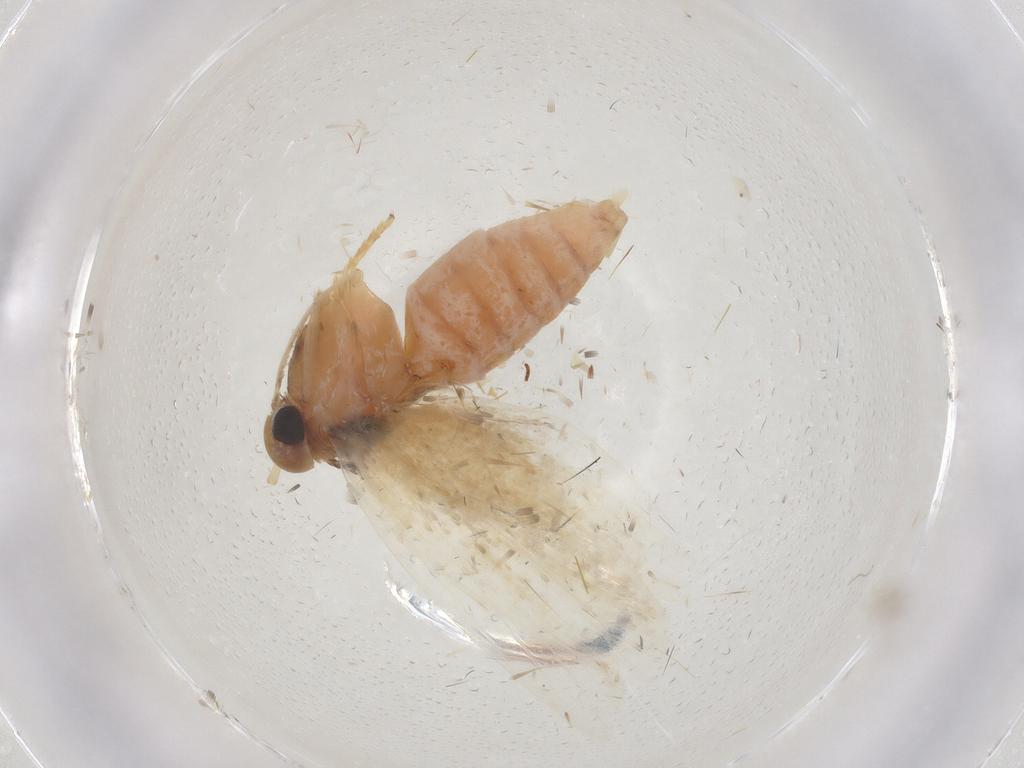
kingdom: Animalia
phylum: Arthropoda
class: Insecta
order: Lepidoptera
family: Oecophoridae
